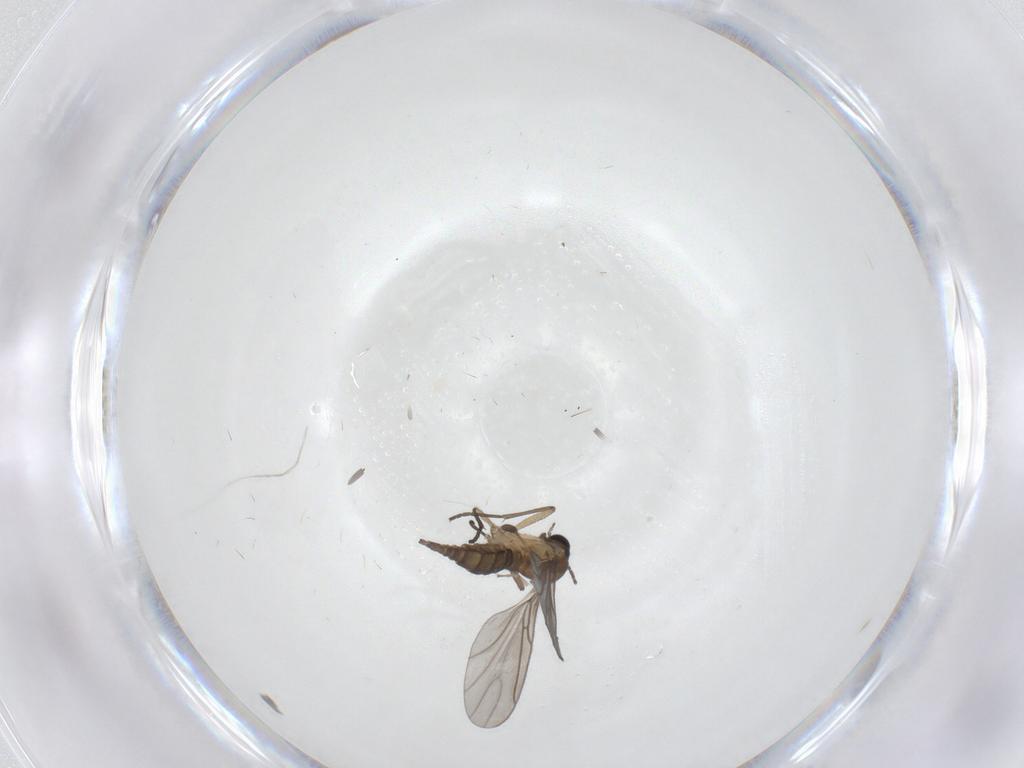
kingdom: Animalia
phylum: Arthropoda
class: Insecta
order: Diptera
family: Sciaridae
